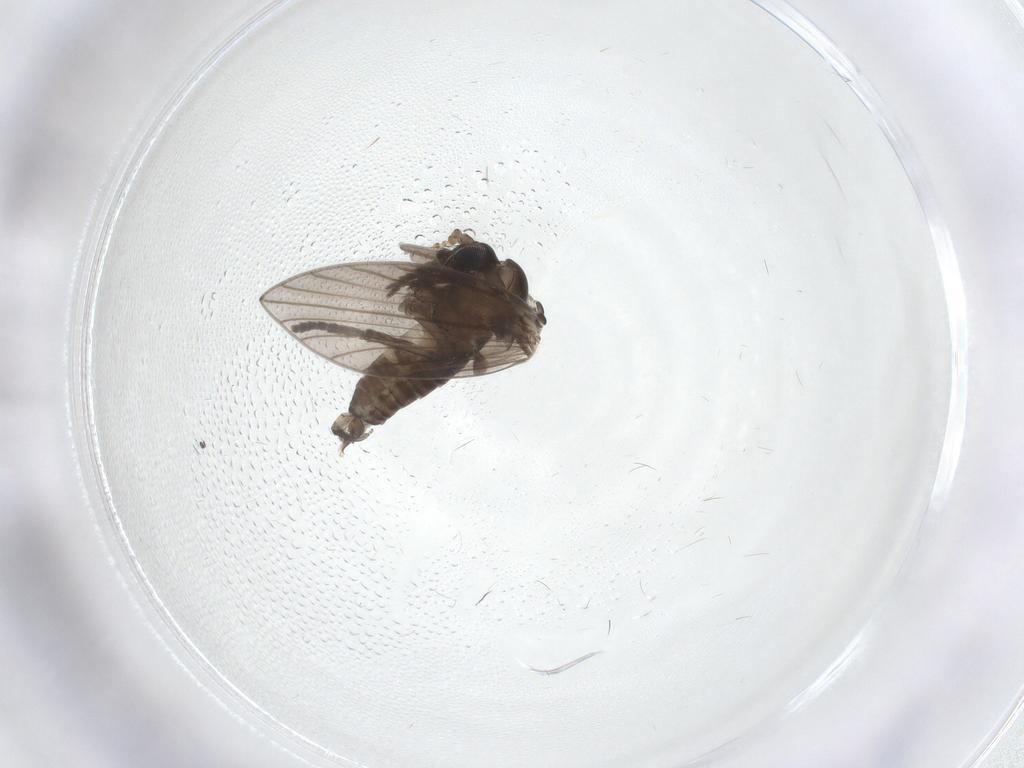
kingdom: Animalia
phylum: Arthropoda
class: Insecta
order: Diptera
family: Psychodidae
